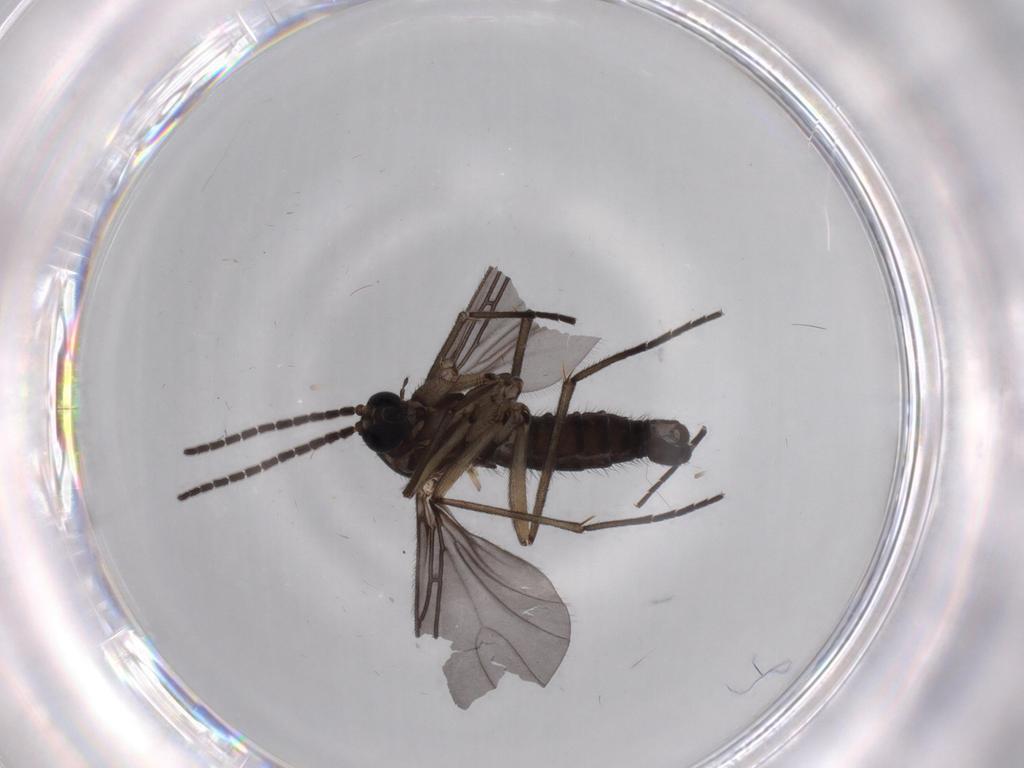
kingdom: Animalia
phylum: Arthropoda
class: Insecta
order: Diptera
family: Sciaridae
